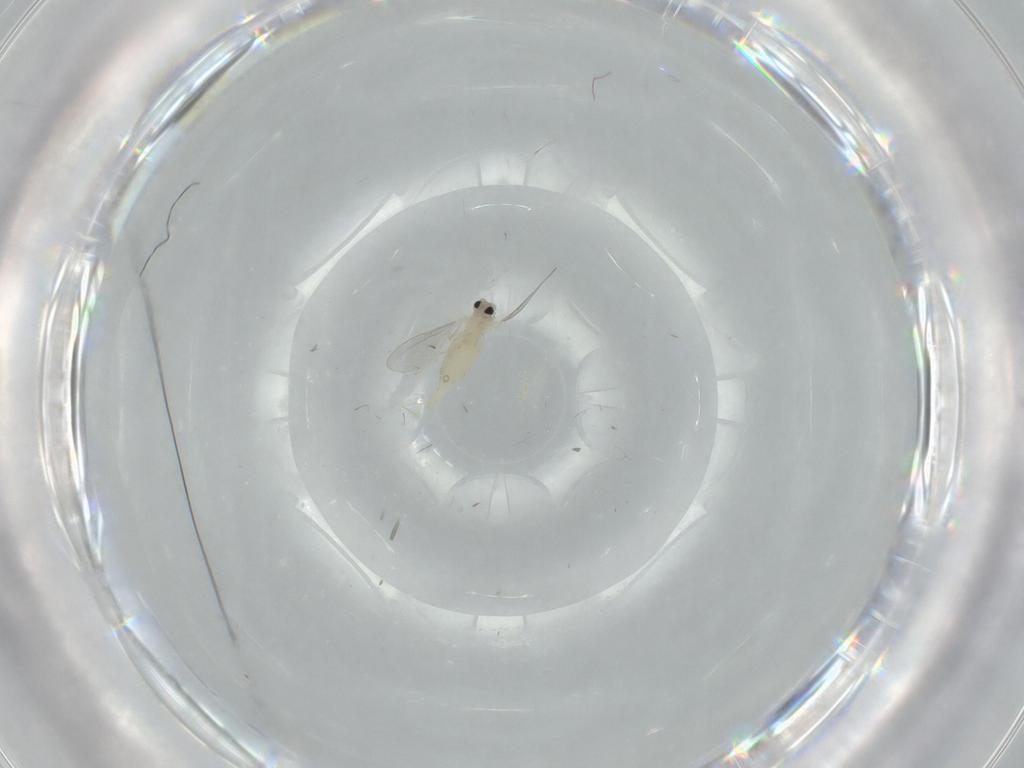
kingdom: Animalia
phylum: Arthropoda
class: Insecta
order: Diptera
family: Cecidomyiidae
